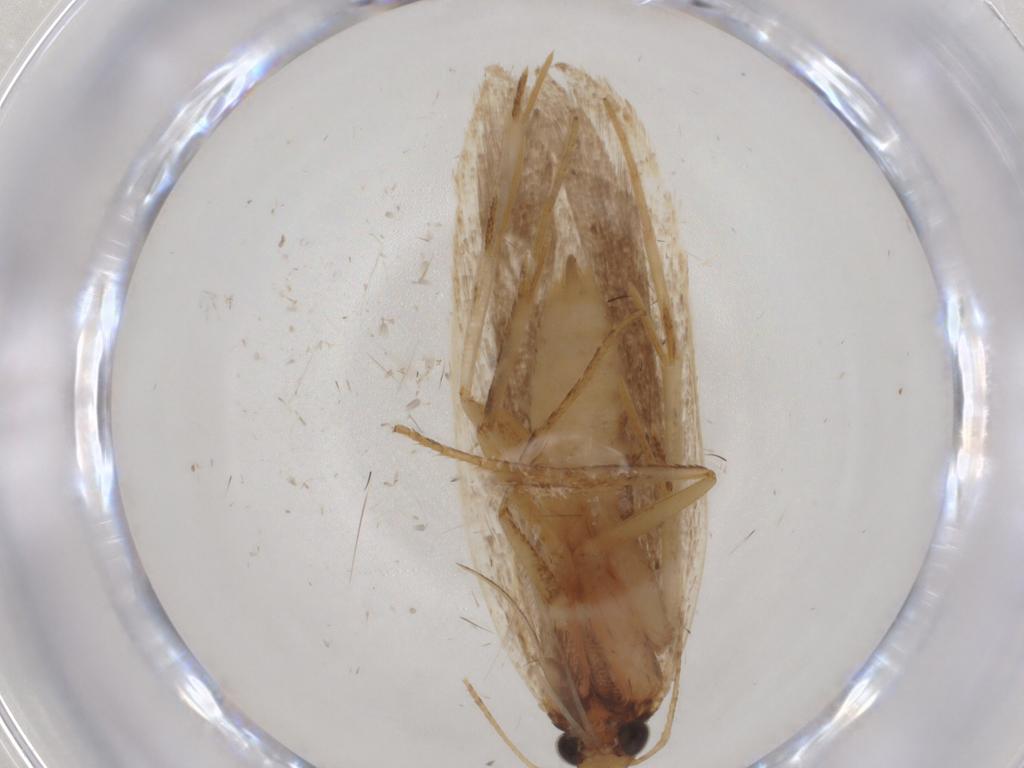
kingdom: Animalia
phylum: Arthropoda
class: Insecta
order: Lepidoptera
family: Gelechiidae
